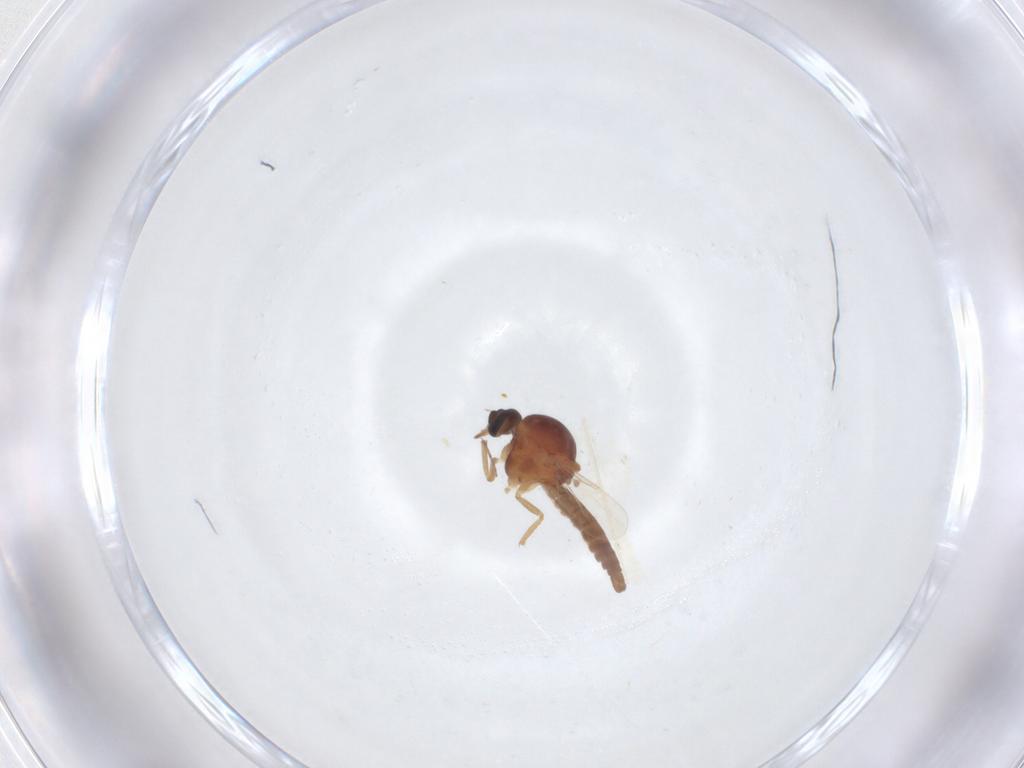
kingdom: Animalia
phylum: Arthropoda
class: Insecta
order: Diptera
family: Ceratopogonidae
